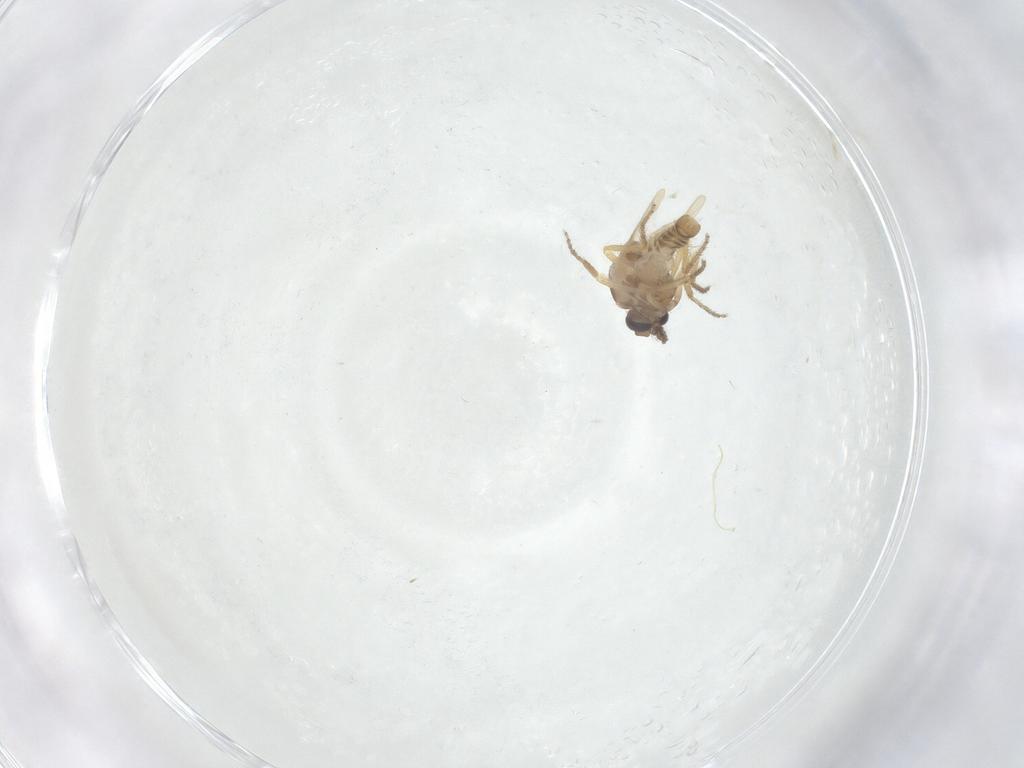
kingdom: Animalia
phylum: Arthropoda
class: Insecta
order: Diptera
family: Ceratopogonidae
